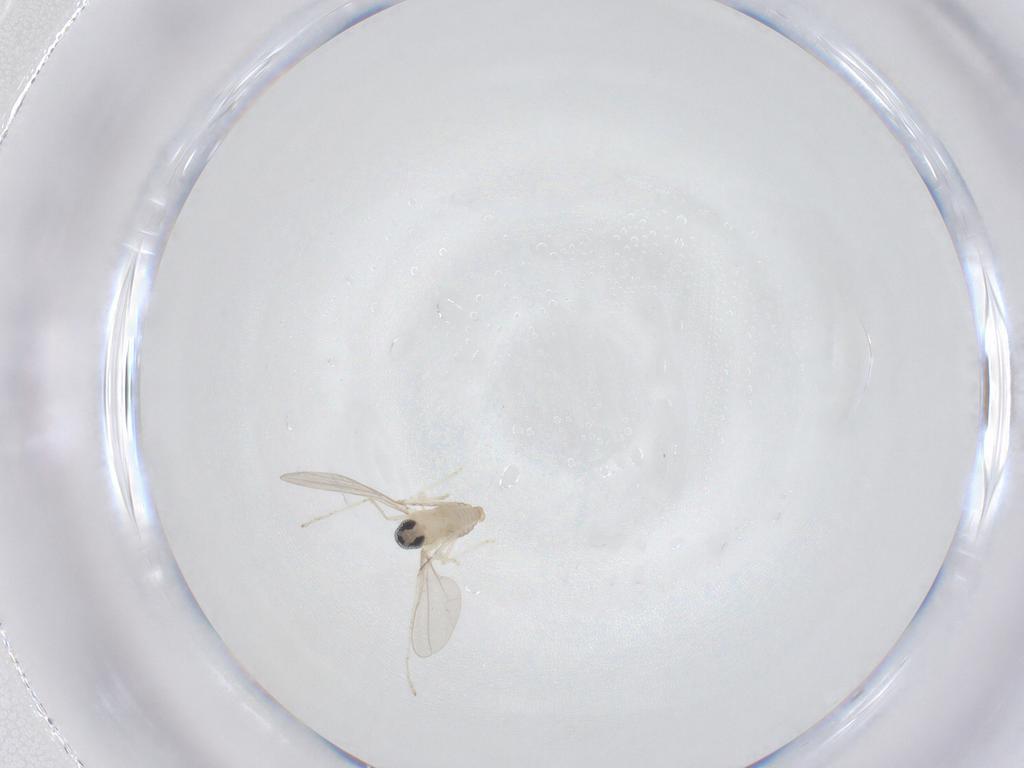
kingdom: Animalia
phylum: Arthropoda
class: Insecta
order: Diptera
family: Cecidomyiidae
